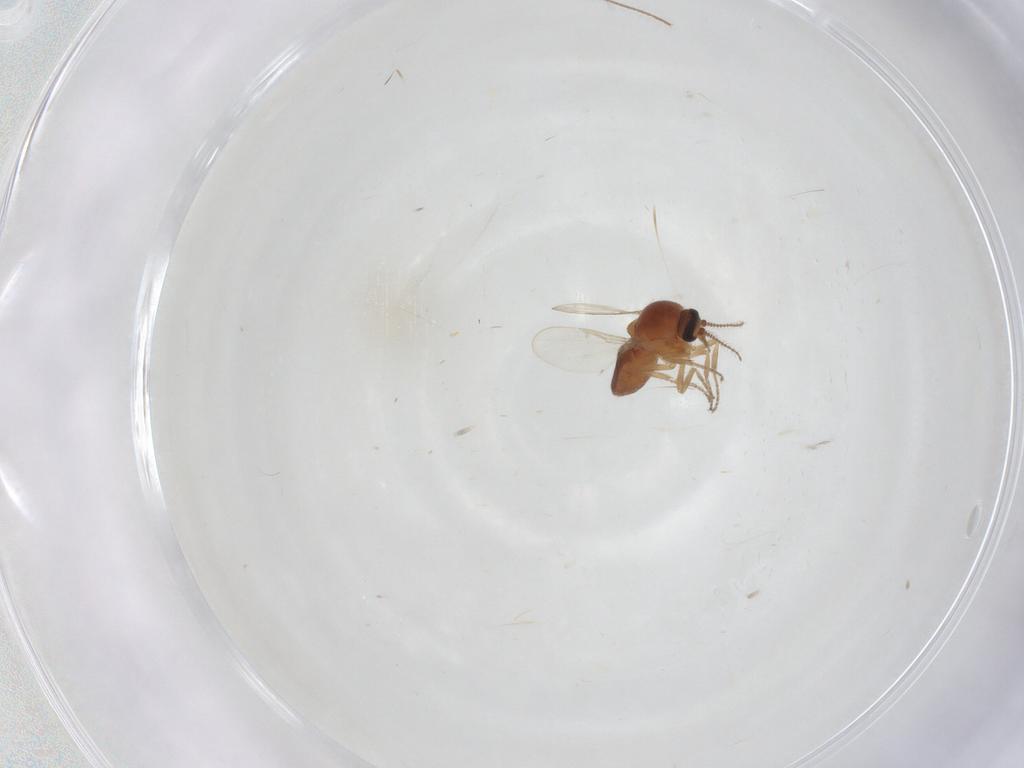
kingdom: Animalia
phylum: Arthropoda
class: Insecta
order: Diptera
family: Ceratopogonidae
